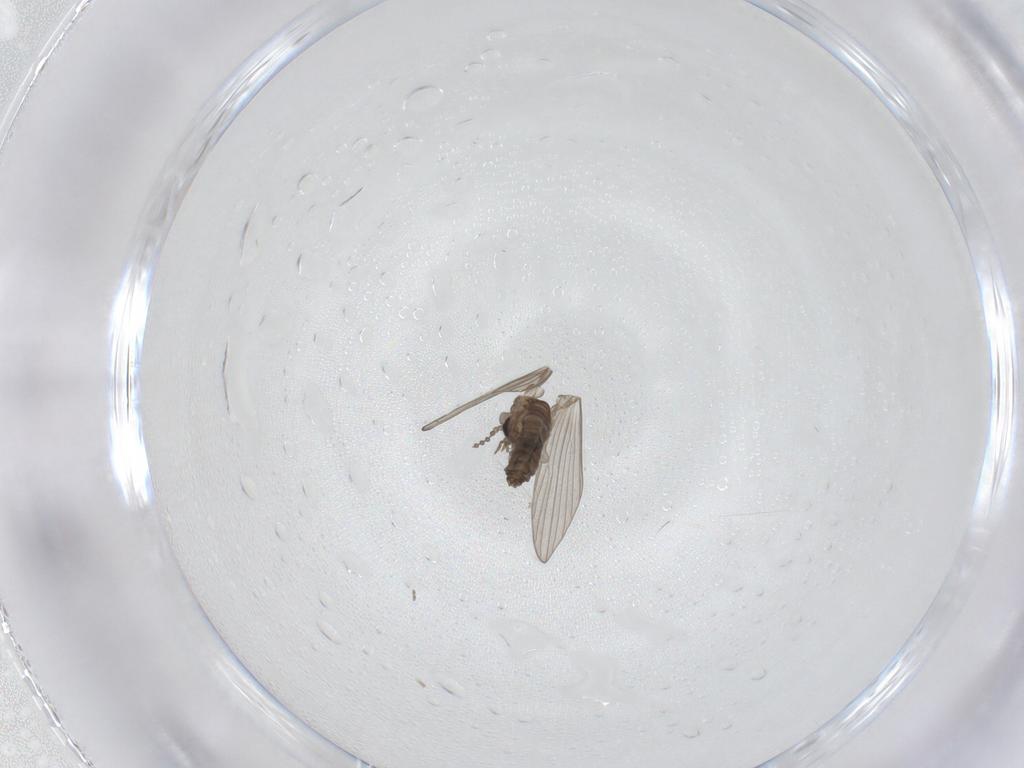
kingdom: Animalia
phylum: Arthropoda
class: Insecta
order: Diptera
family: Psychodidae
